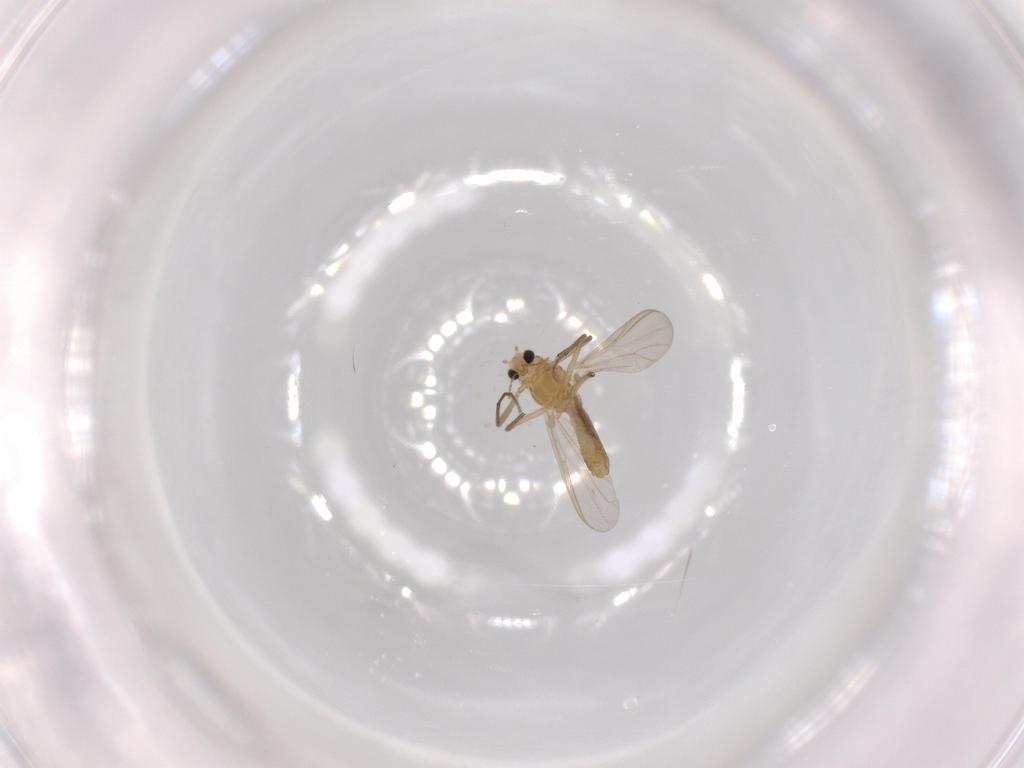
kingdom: Animalia
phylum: Arthropoda
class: Insecta
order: Diptera
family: Chironomidae
